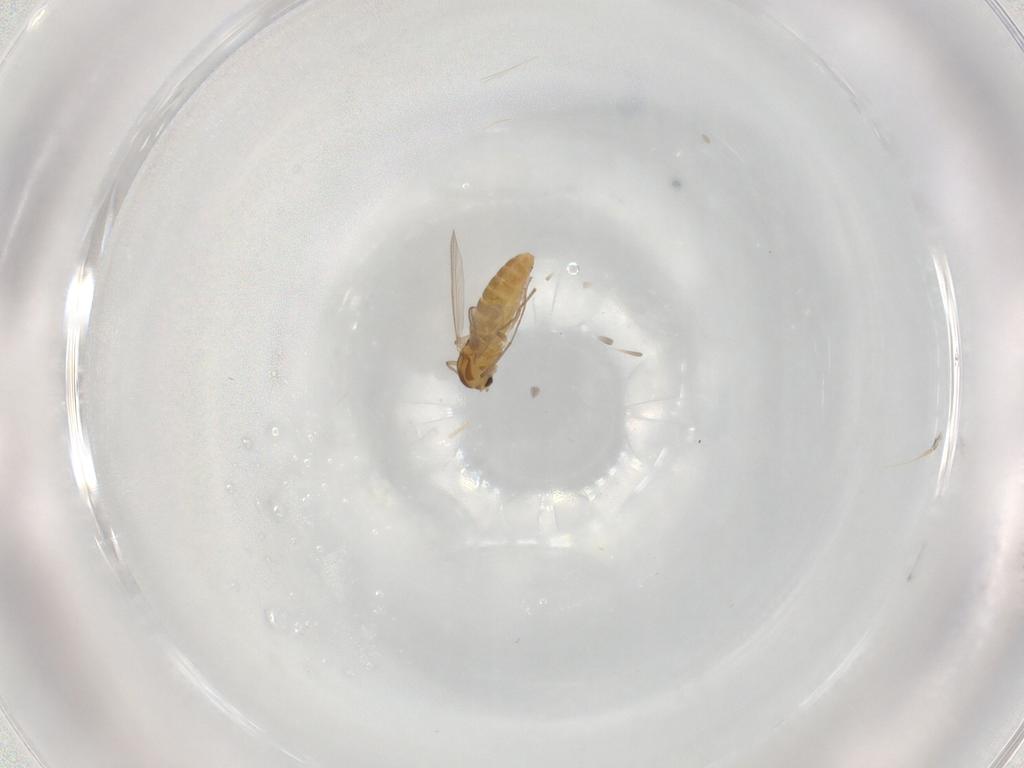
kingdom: Animalia
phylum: Arthropoda
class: Insecta
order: Diptera
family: Chironomidae
